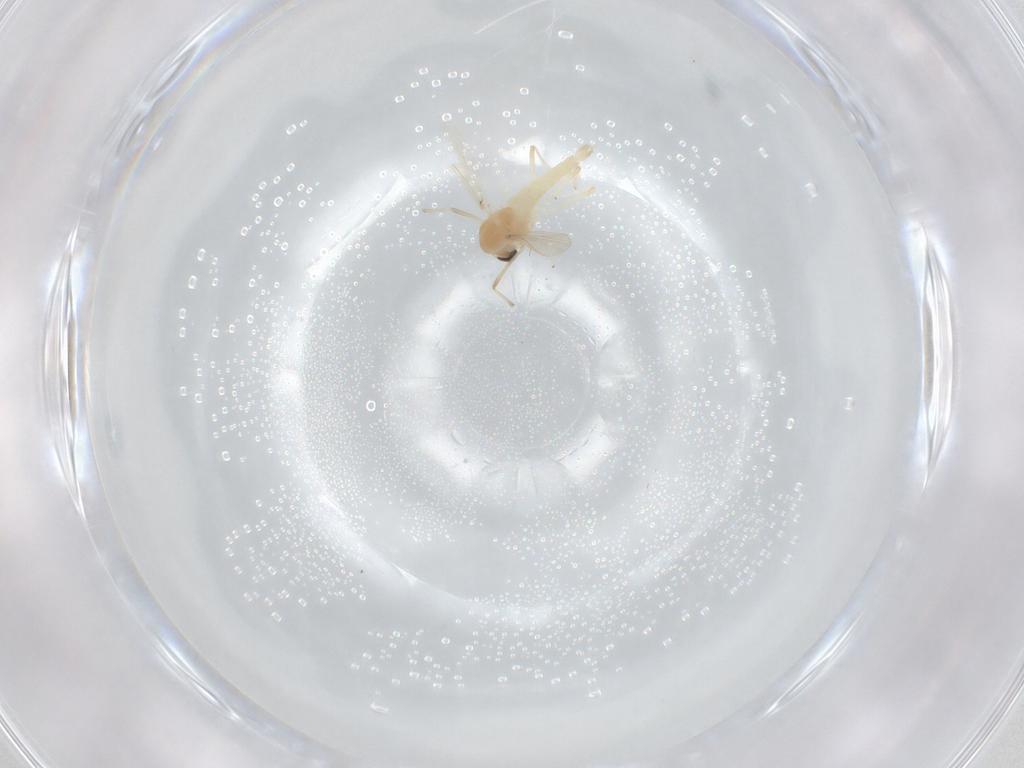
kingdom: Animalia
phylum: Arthropoda
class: Insecta
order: Diptera
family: Chironomidae
